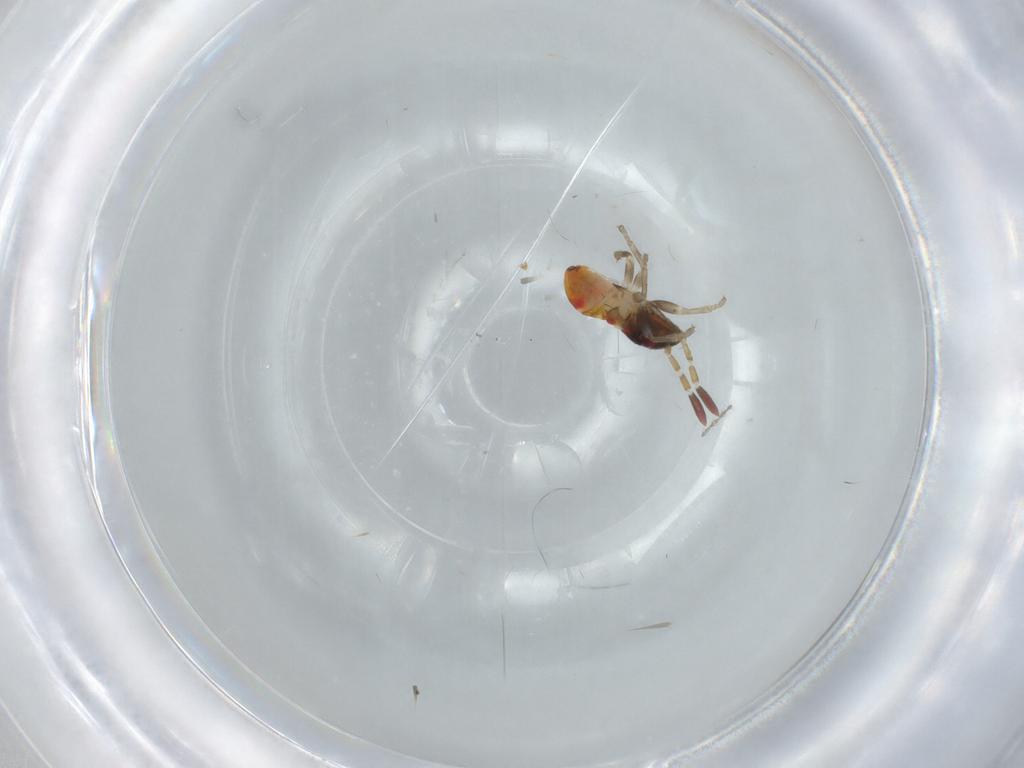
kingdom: Animalia
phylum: Arthropoda
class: Insecta
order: Hemiptera
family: Rhyparochromidae
